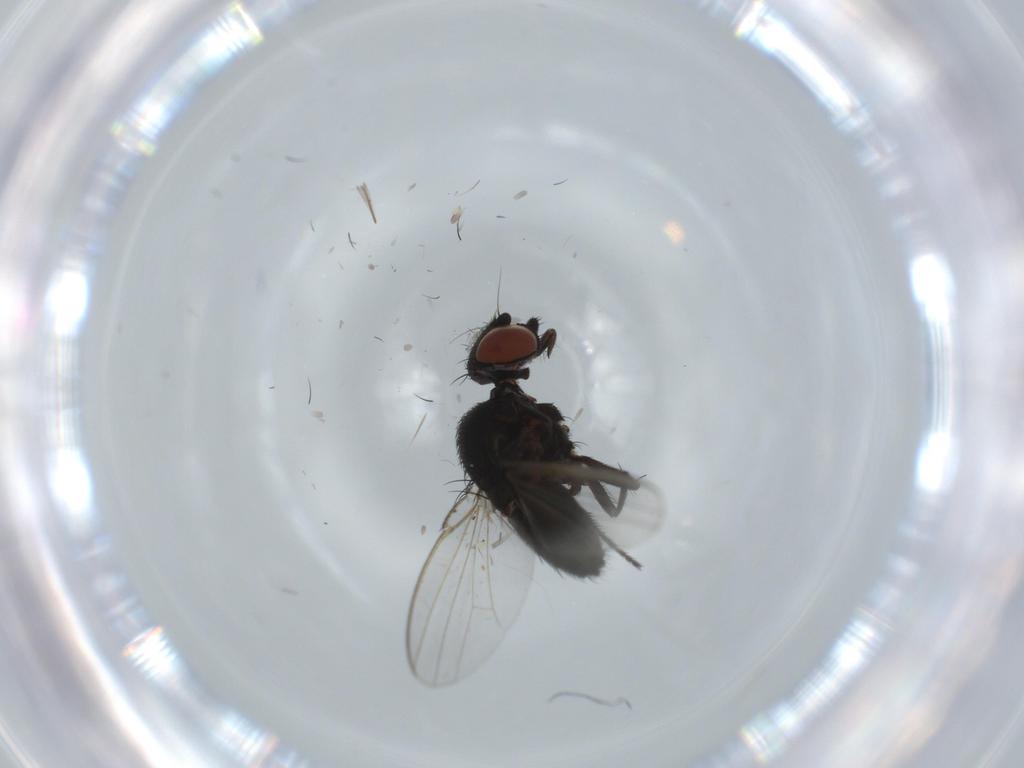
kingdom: Animalia
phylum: Arthropoda
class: Insecta
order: Diptera
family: Milichiidae
